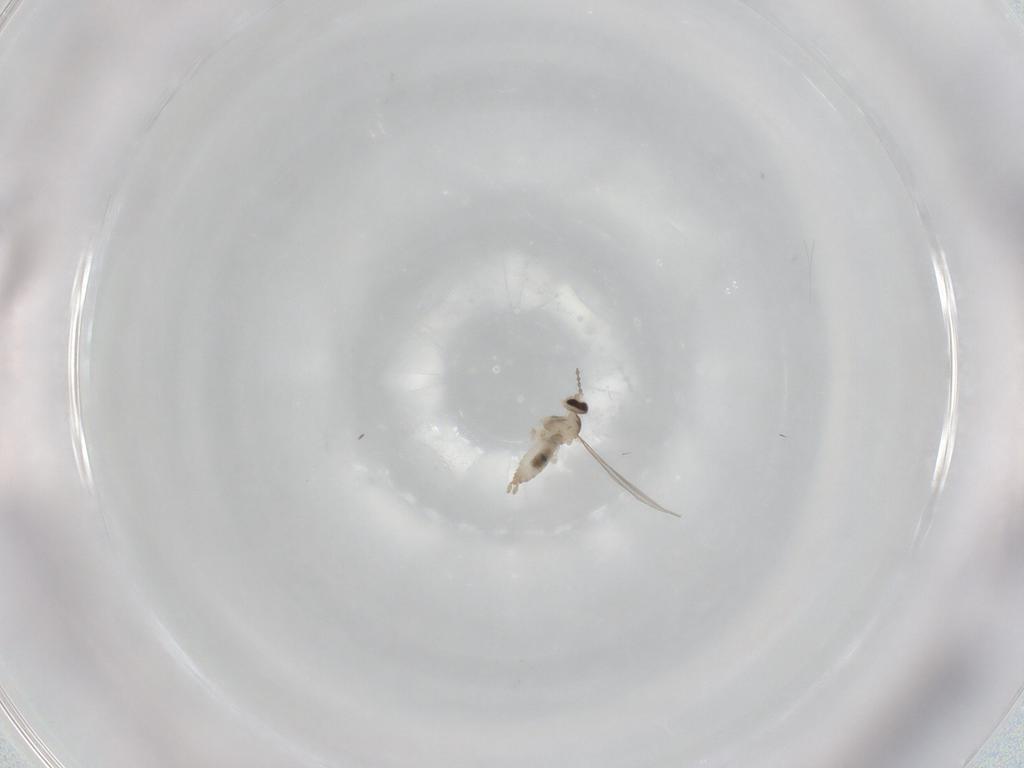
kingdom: Animalia
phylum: Arthropoda
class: Insecta
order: Diptera
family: Psychodidae
